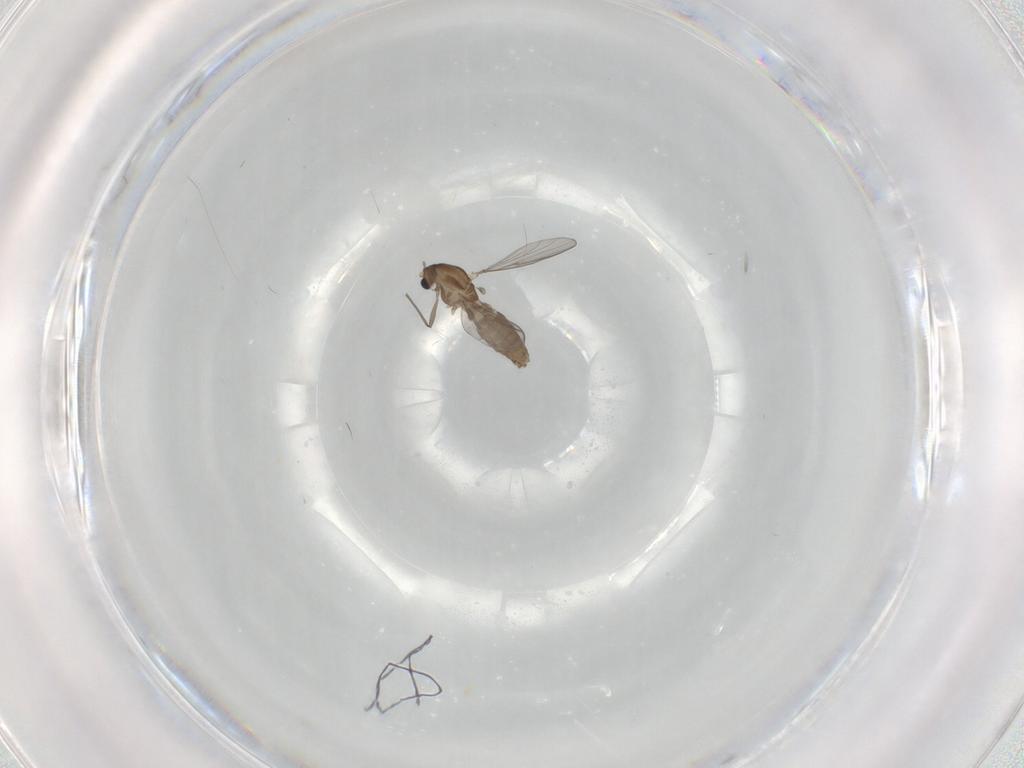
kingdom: Animalia
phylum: Arthropoda
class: Insecta
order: Diptera
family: Chironomidae
